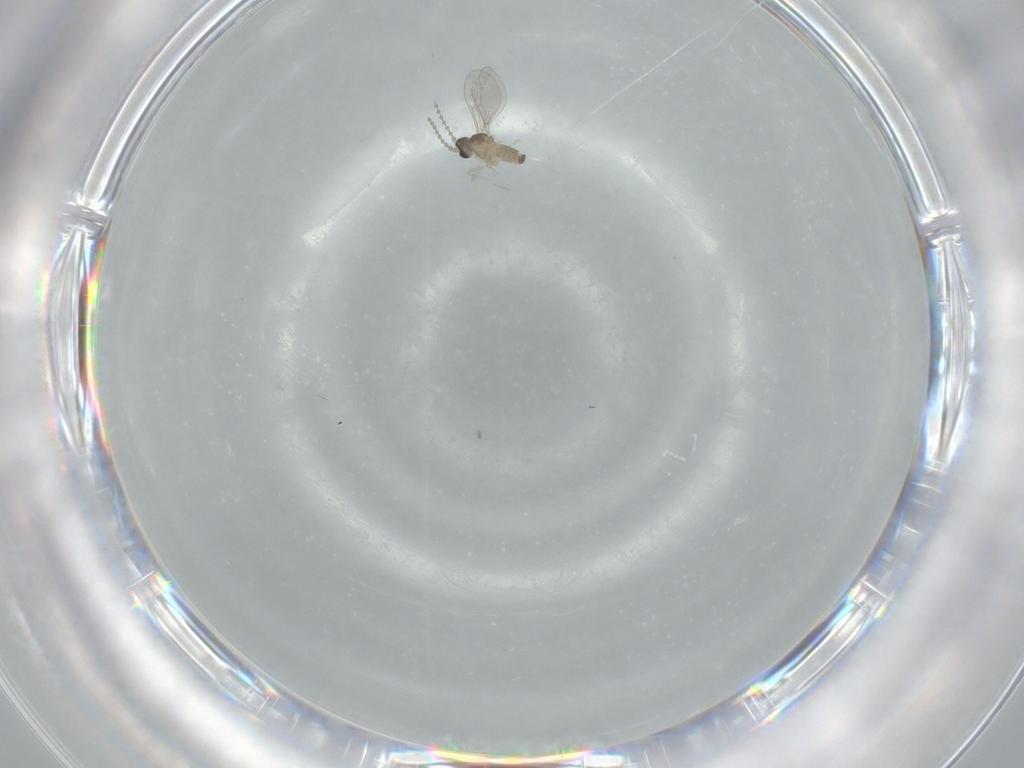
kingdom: Animalia
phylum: Arthropoda
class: Insecta
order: Diptera
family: Cecidomyiidae
